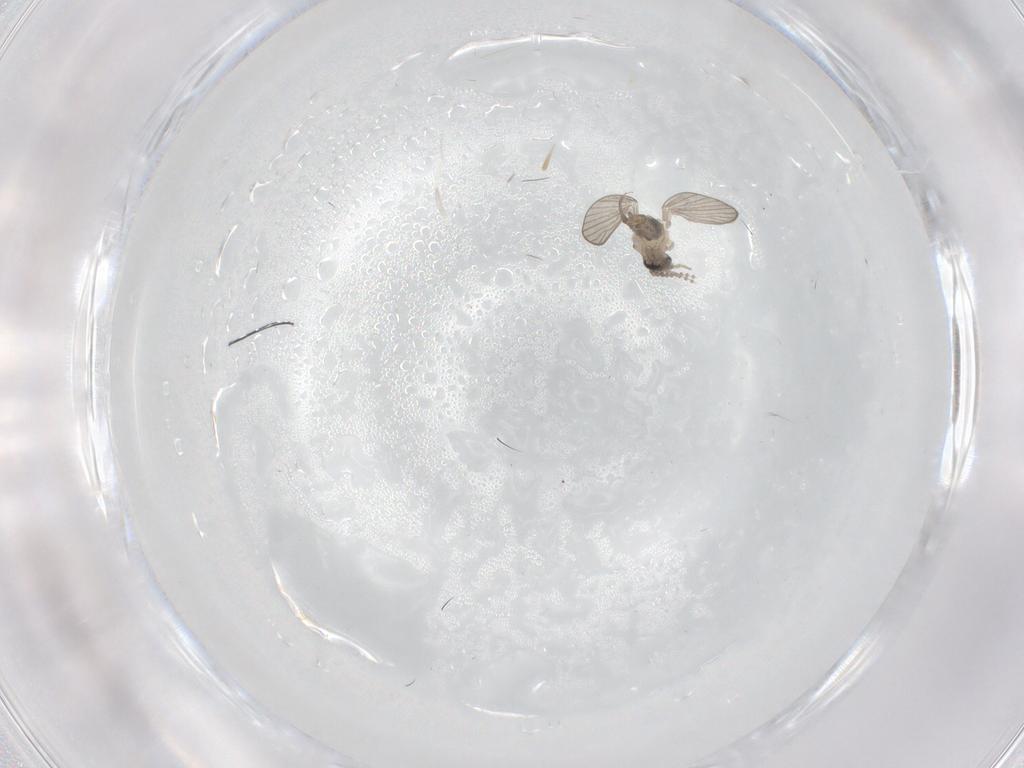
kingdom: Animalia
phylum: Arthropoda
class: Insecta
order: Diptera
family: Psychodidae
